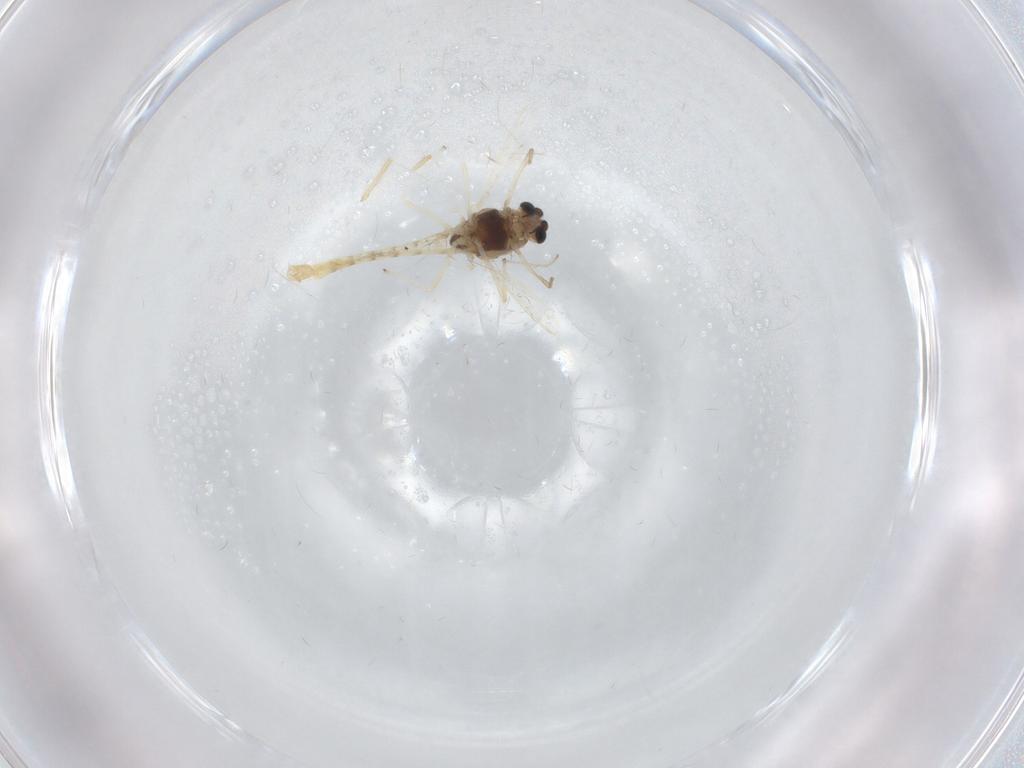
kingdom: Animalia
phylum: Arthropoda
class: Insecta
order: Diptera
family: Chironomidae
